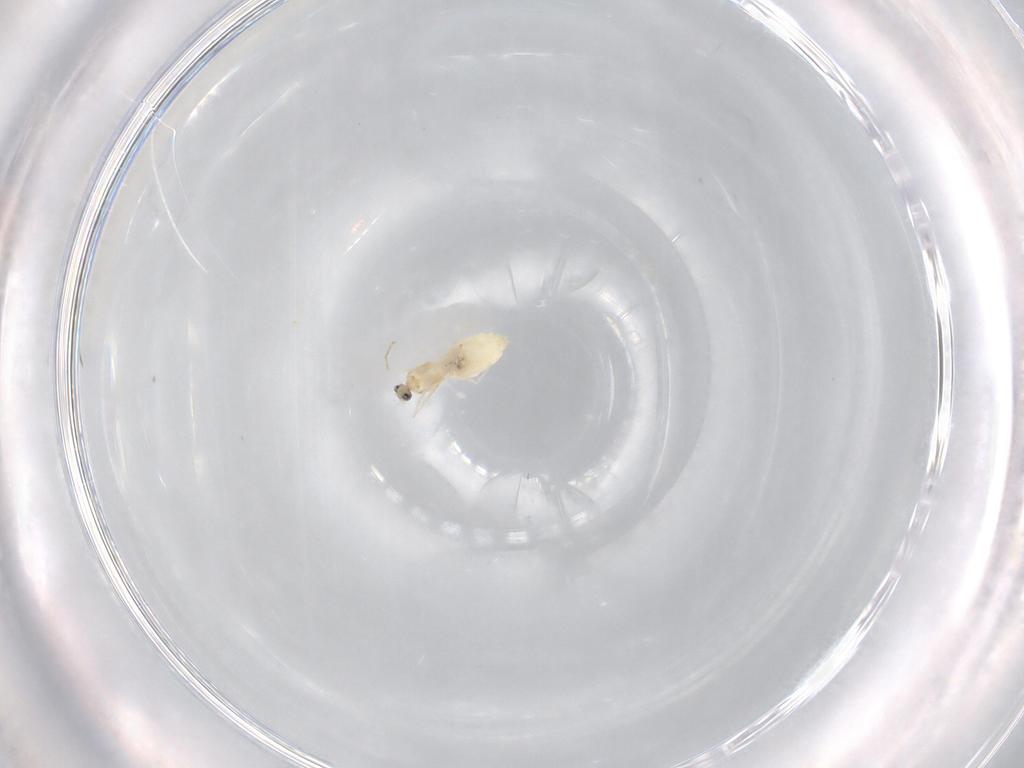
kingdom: Animalia
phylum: Arthropoda
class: Insecta
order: Diptera
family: Cecidomyiidae
